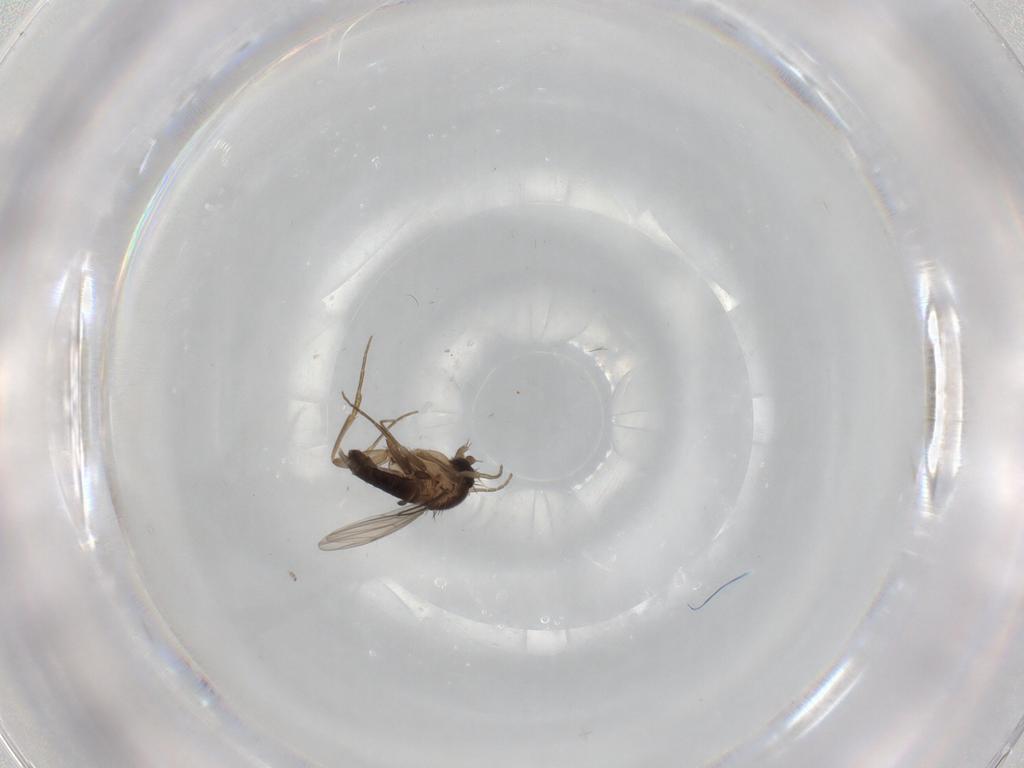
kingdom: Animalia
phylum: Arthropoda
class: Insecta
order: Diptera
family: Phoridae
